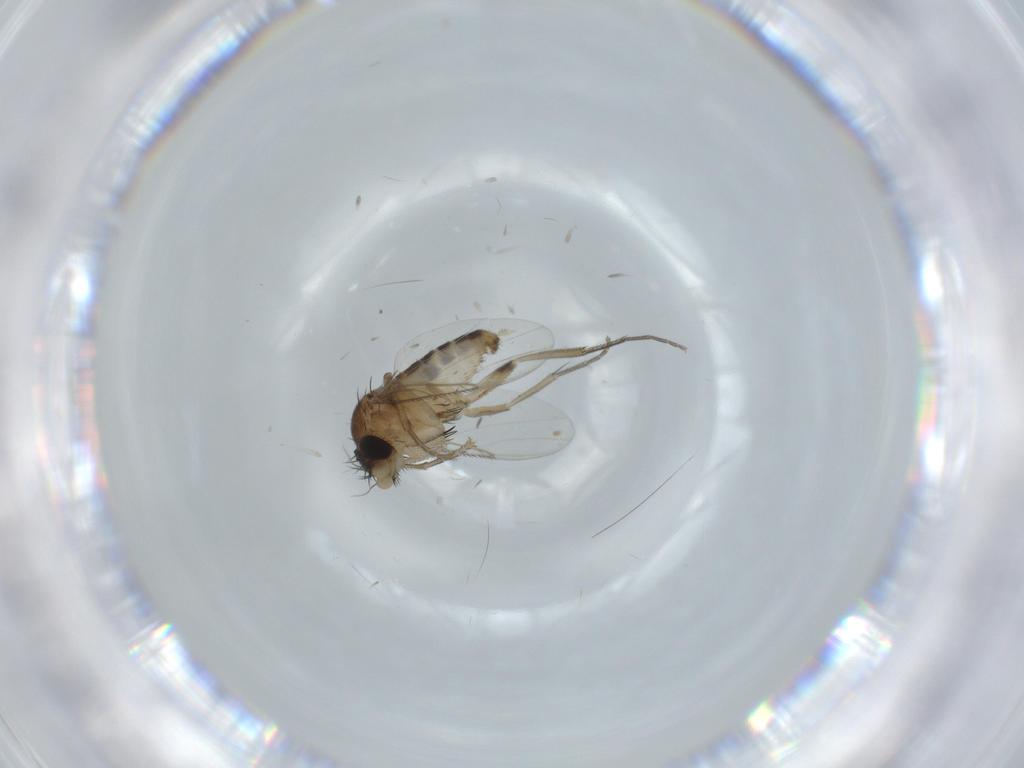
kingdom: Animalia
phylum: Arthropoda
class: Insecta
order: Diptera
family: Phoridae
